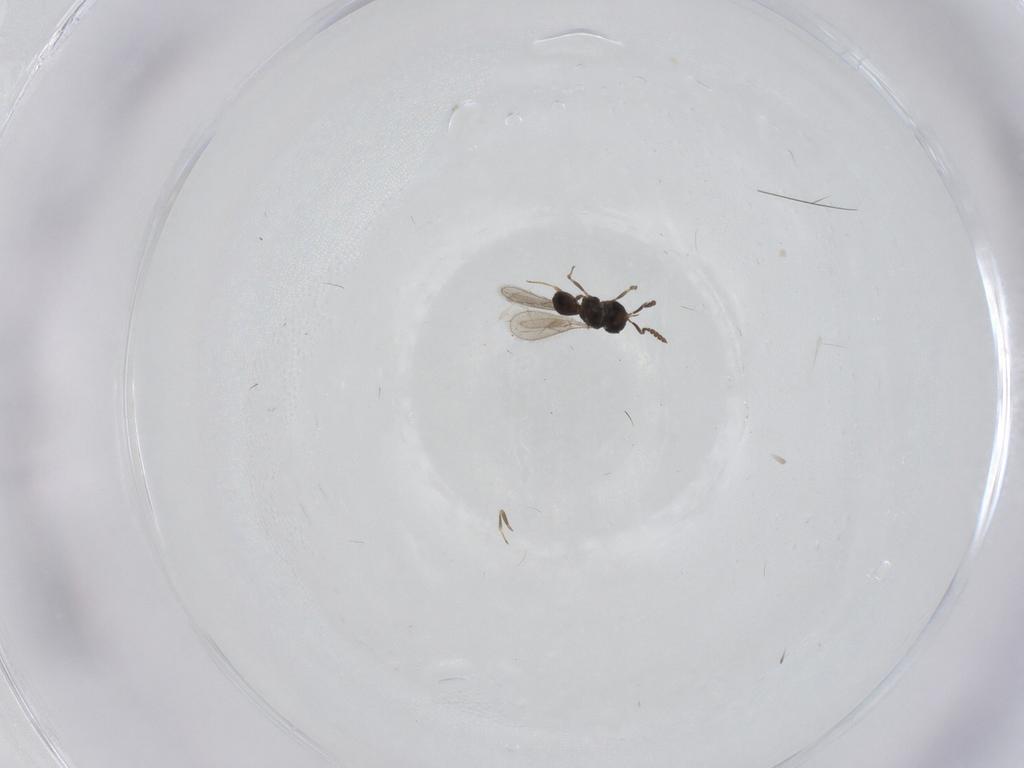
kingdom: Animalia
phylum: Arthropoda
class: Insecta
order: Hymenoptera
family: Scelionidae
